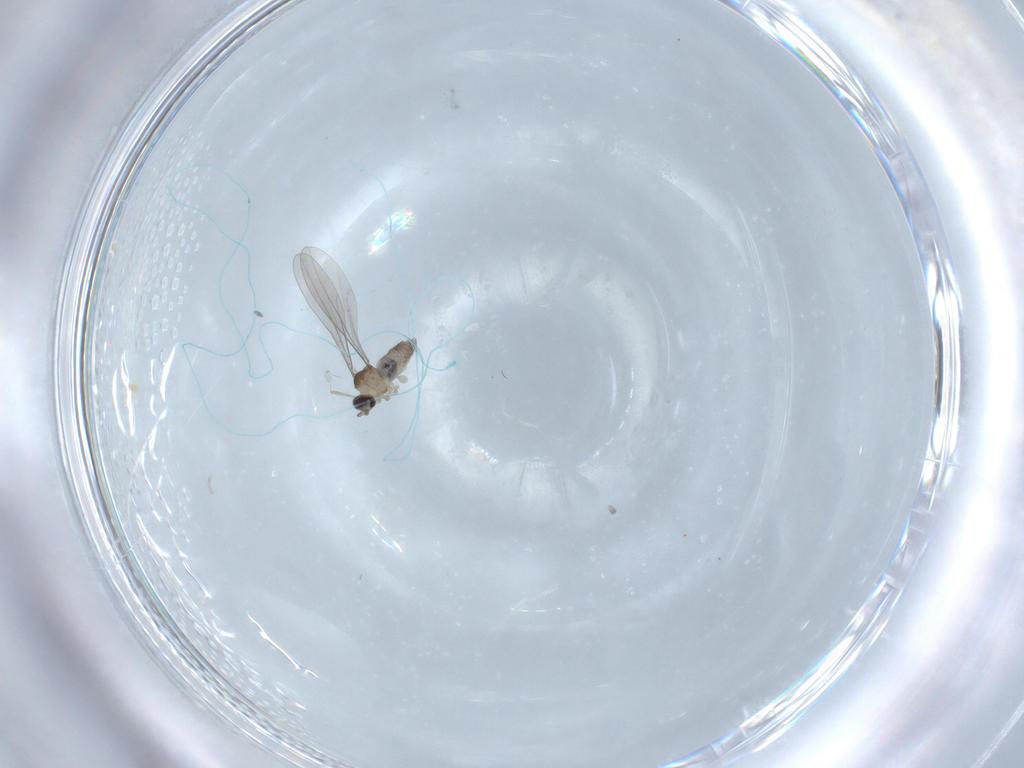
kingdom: Animalia
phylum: Arthropoda
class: Insecta
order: Diptera
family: Cecidomyiidae
